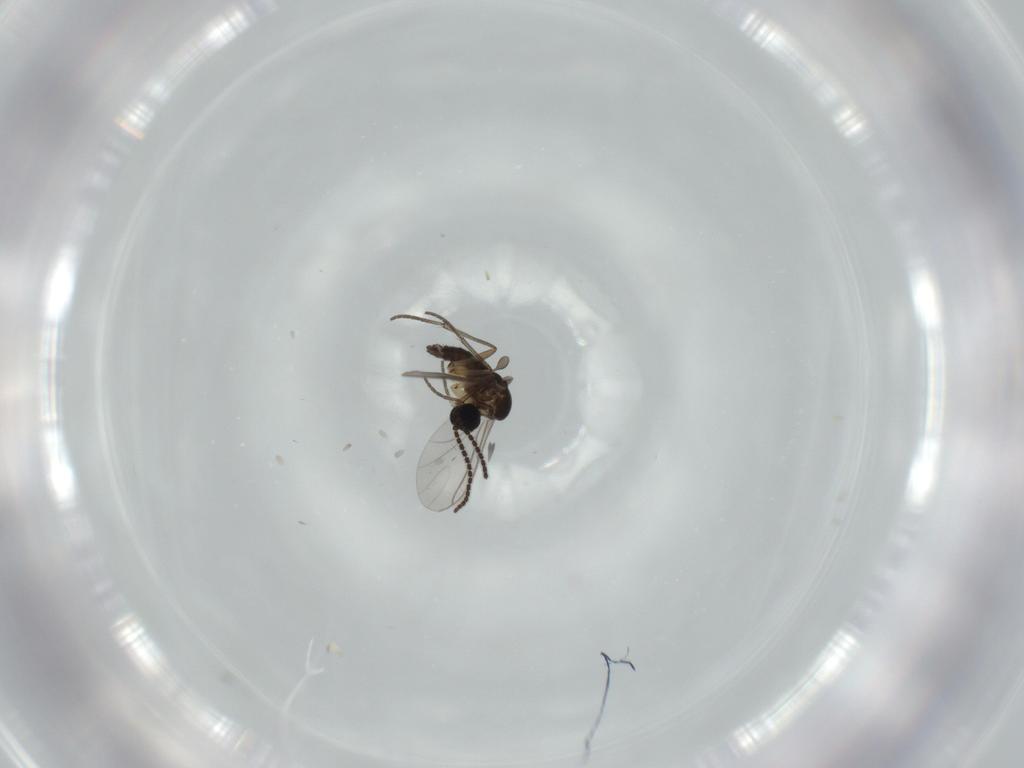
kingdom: Animalia
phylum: Arthropoda
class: Insecta
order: Diptera
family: Sciaridae
